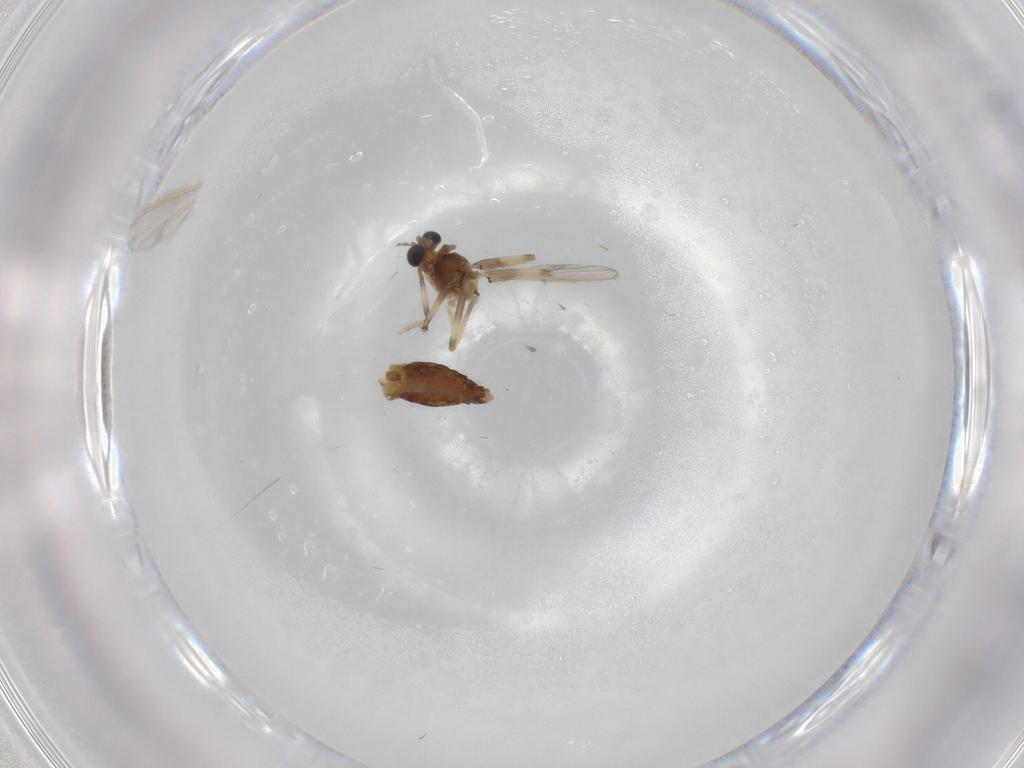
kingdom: Animalia
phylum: Arthropoda
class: Insecta
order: Diptera
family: Chironomidae
